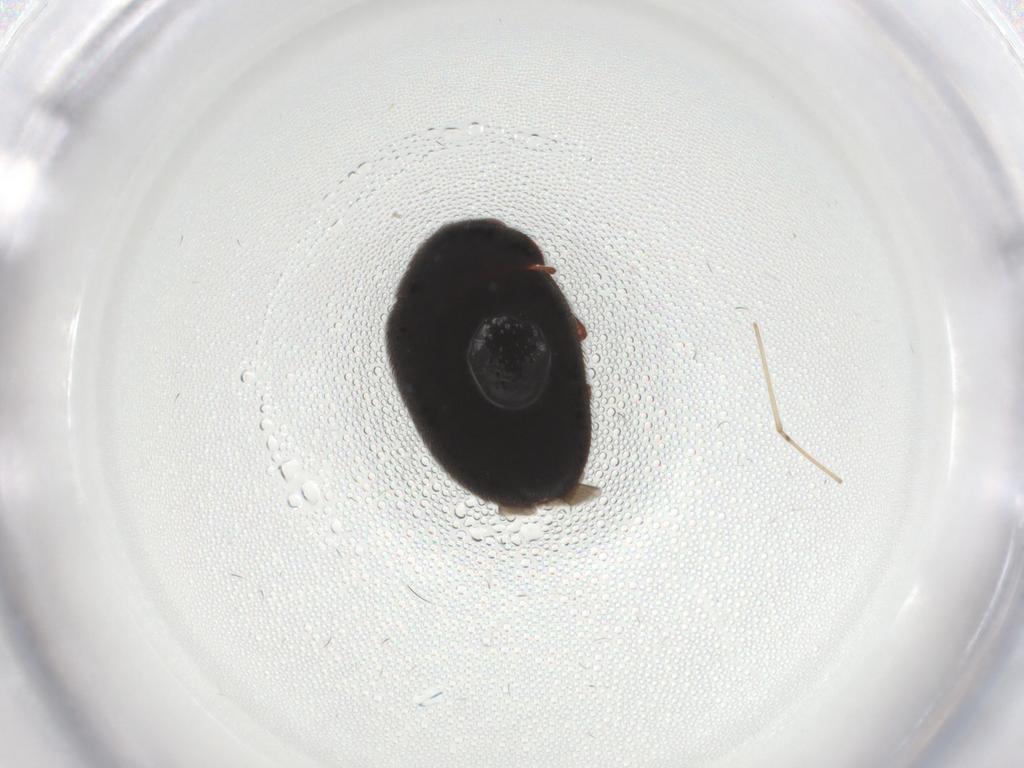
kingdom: Animalia
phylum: Arthropoda
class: Insecta
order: Coleoptera
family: Dermestidae
